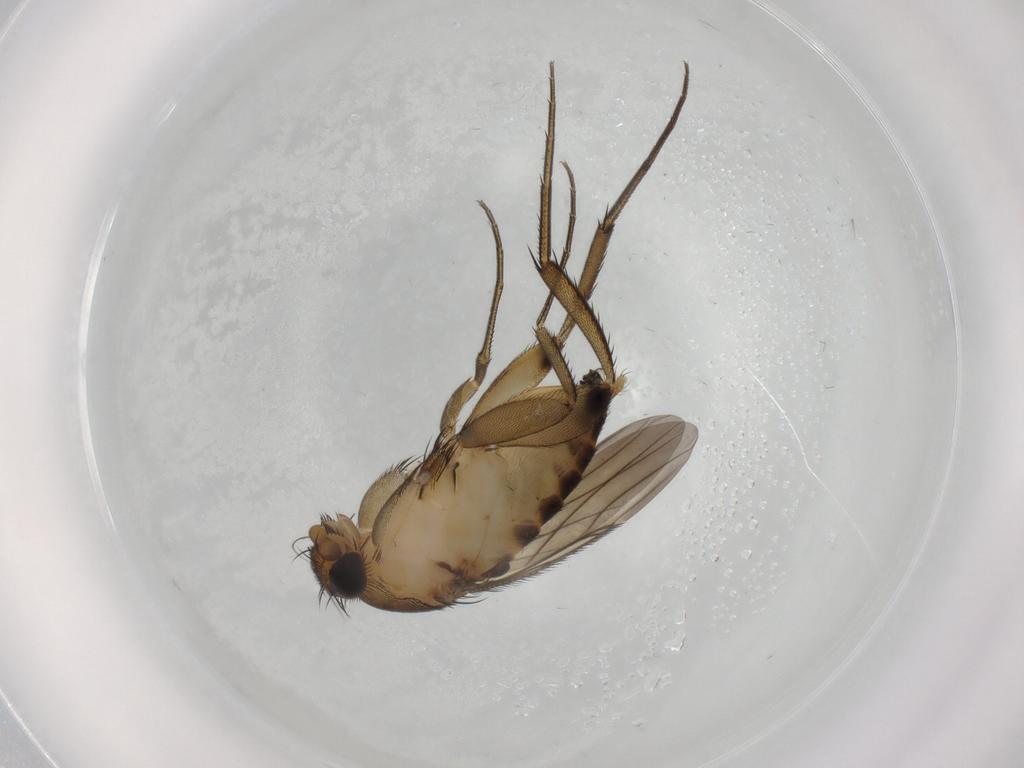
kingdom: Animalia
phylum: Arthropoda
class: Insecta
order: Diptera
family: Phoridae
